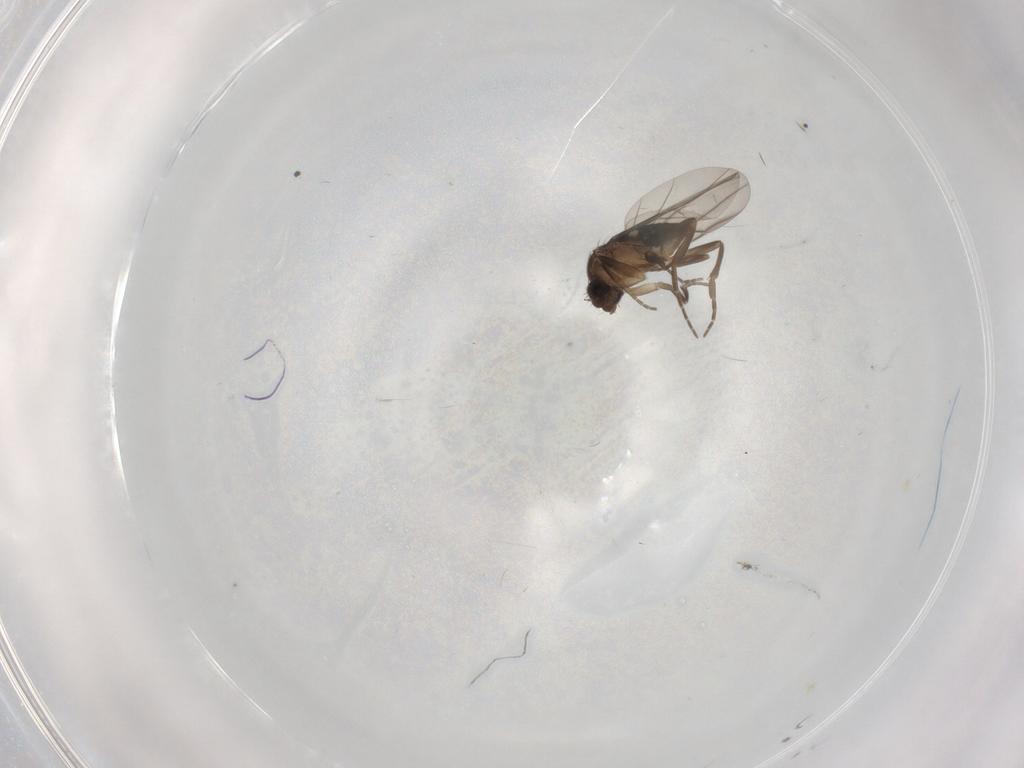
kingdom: Animalia
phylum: Arthropoda
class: Insecta
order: Diptera
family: Phoridae
